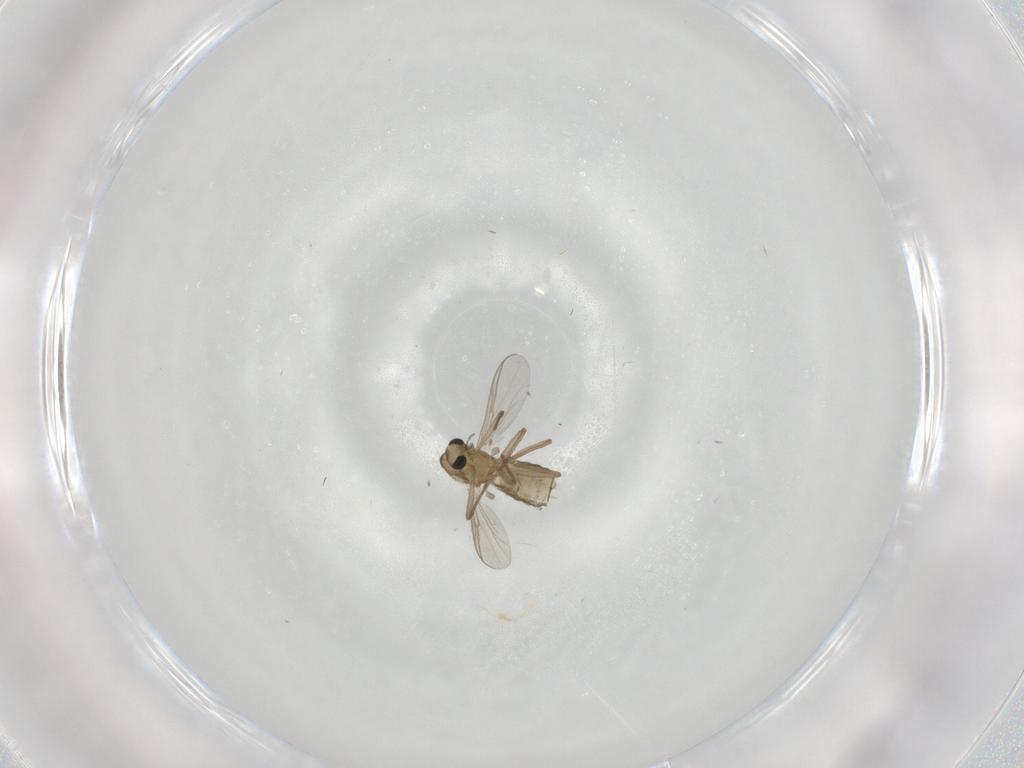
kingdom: Animalia
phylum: Arthropoda
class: Insecta
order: Diptera
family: Chironomidae
